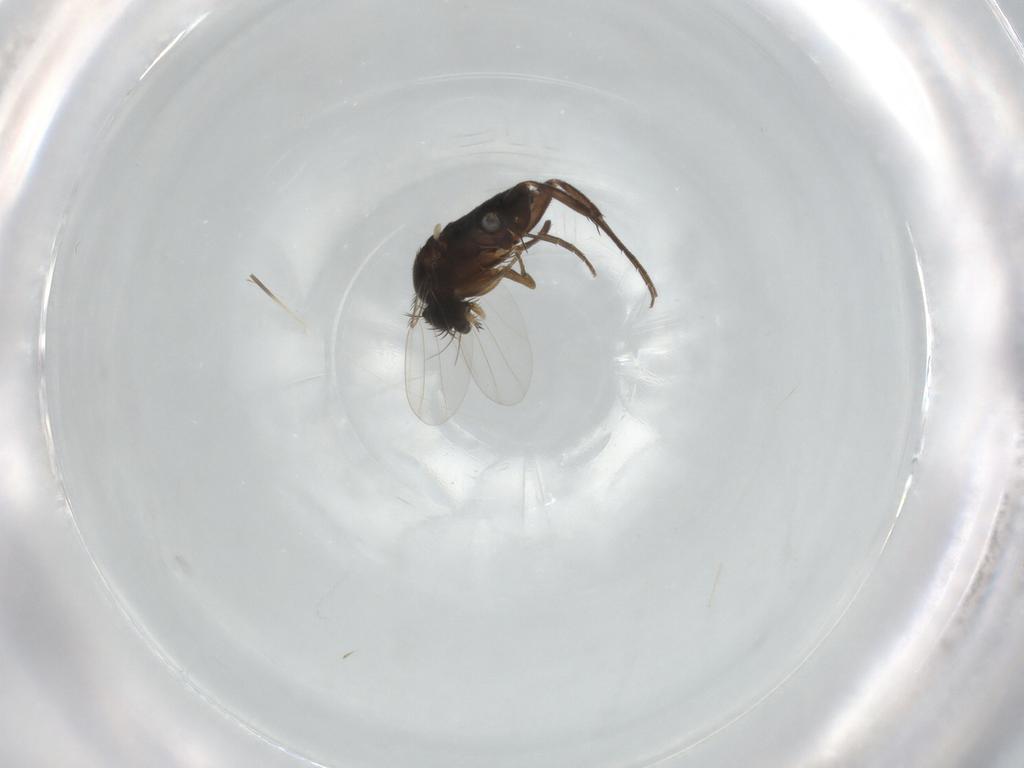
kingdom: Animalia
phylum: Arthropoda
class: Insecta
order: Diptera
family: Phoridae
